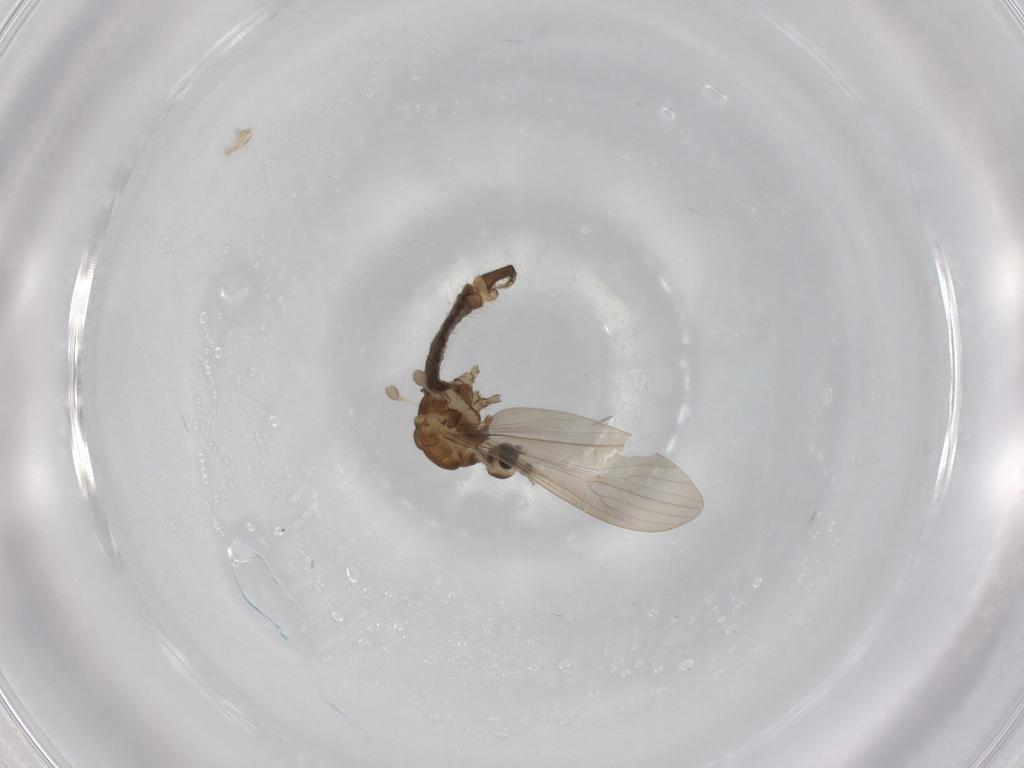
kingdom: Animalia
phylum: Arthropoda
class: Insecta
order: Diptera
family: Limoniidae
